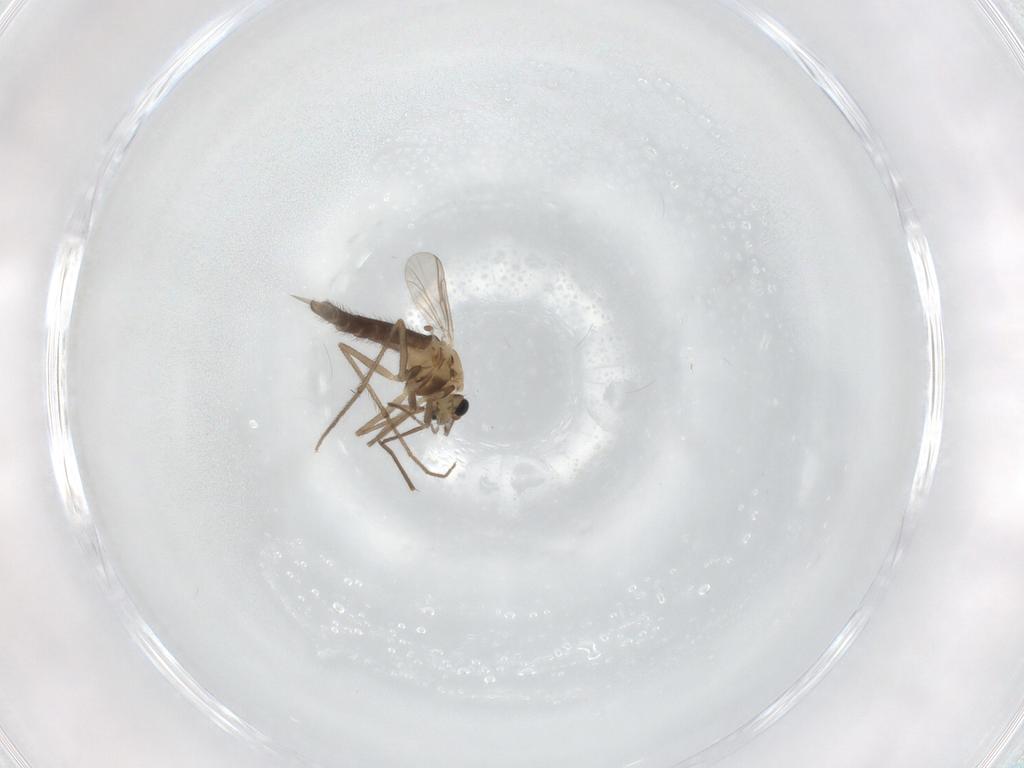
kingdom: Animalia
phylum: Arthropoda
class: Insecta
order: Diptera
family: Chironomidae
